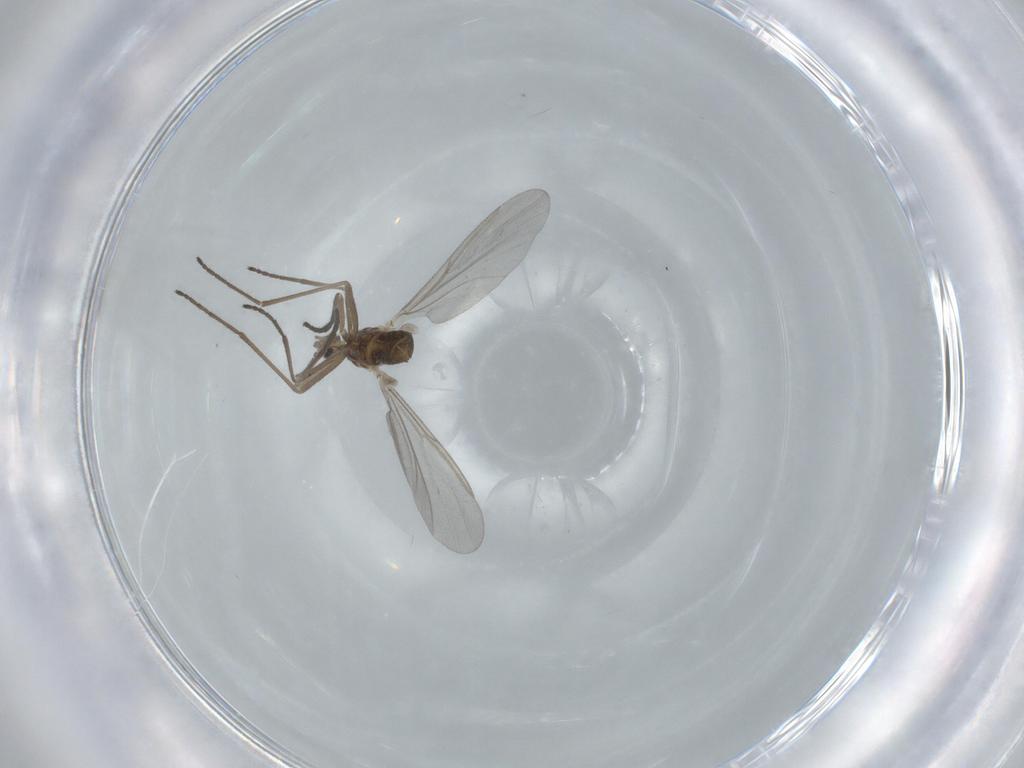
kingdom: Animalia
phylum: Arthropoda
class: Insecta
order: Diptera
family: Cecidomyiidae
